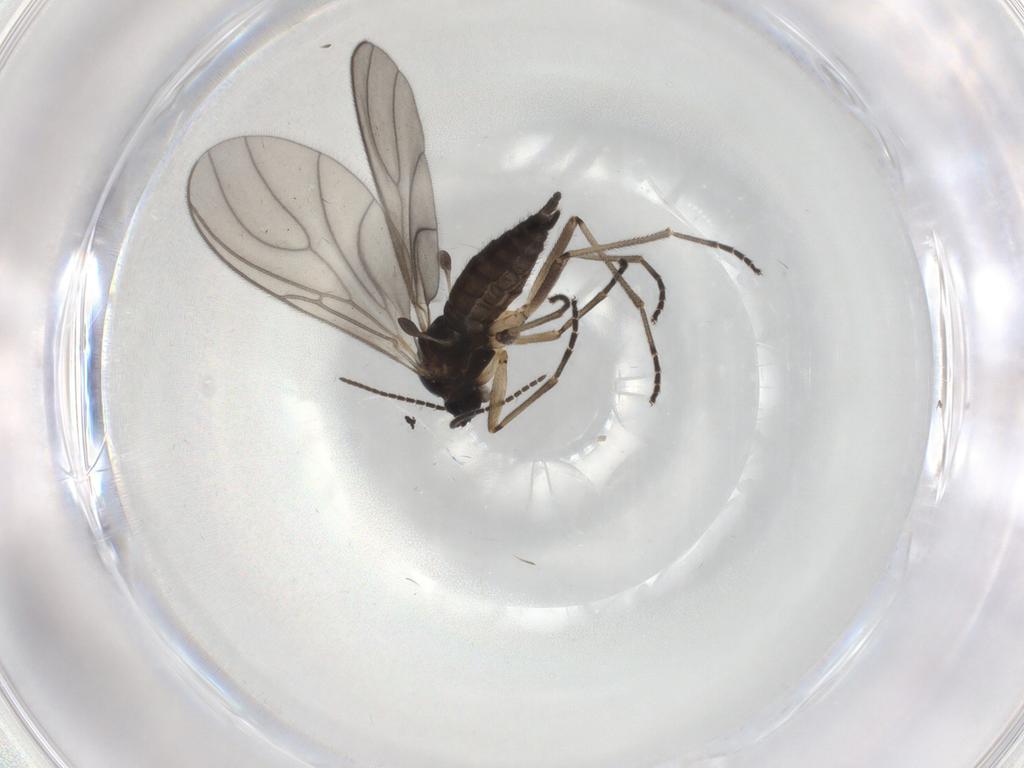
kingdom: Animalia
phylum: Arthropoda
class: Insecta
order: Diptera
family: Sciaridae
